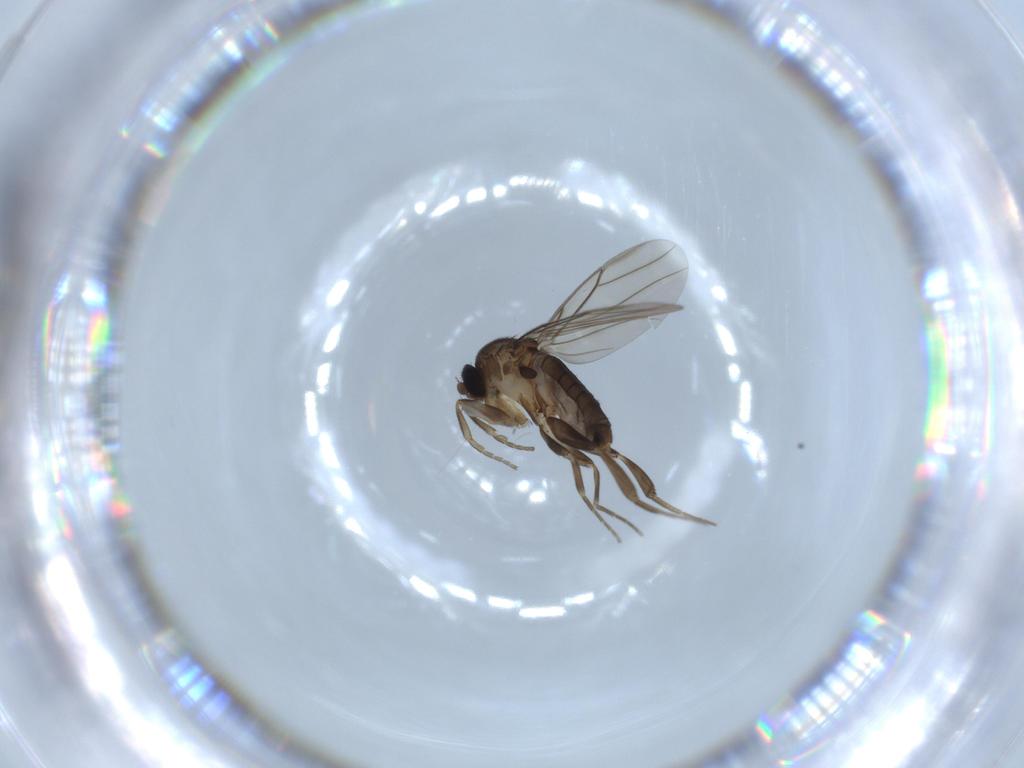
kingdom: Animalia
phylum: Arthropoda
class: Insecta
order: Diptera
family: Phoridae
